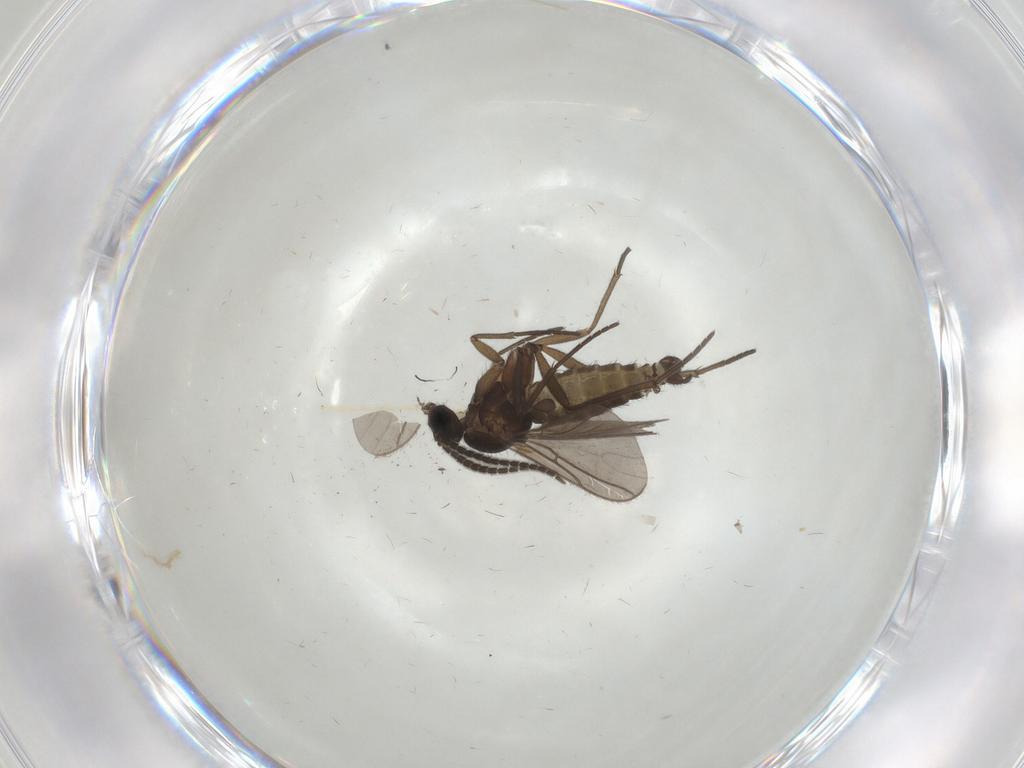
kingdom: Animalia
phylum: Arthropoda
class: Insecta
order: Diptera
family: Sciaridae
